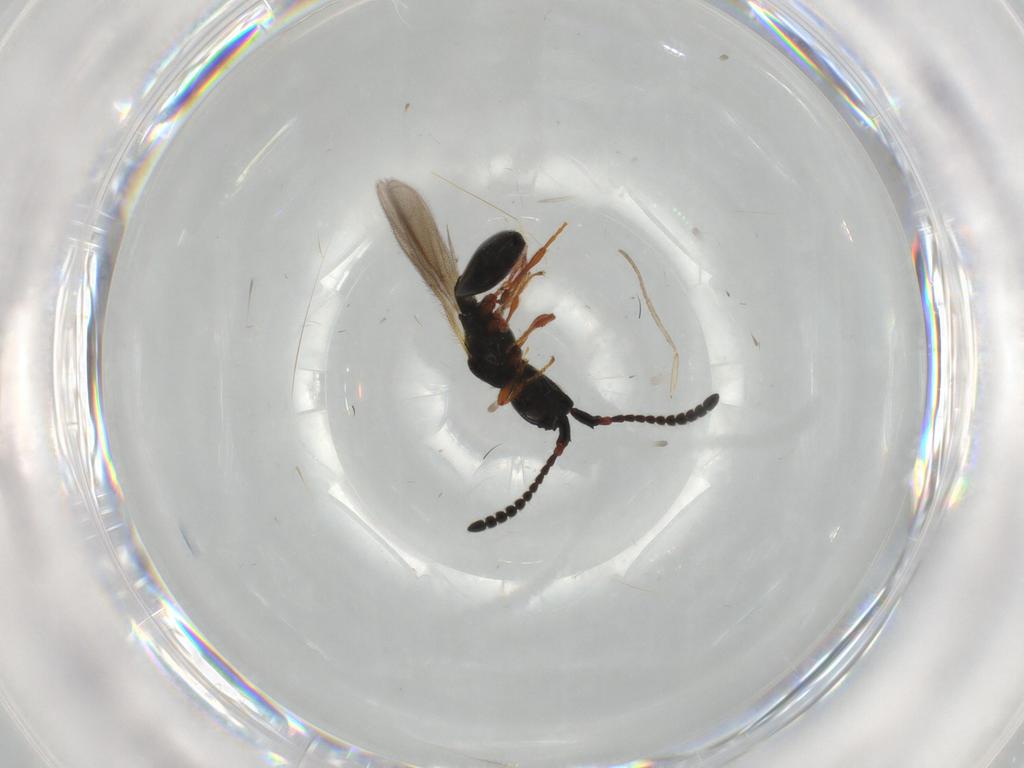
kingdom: Animalia
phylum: Arthropoda
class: Insecta
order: Hymenoptera
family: Diapriidae
